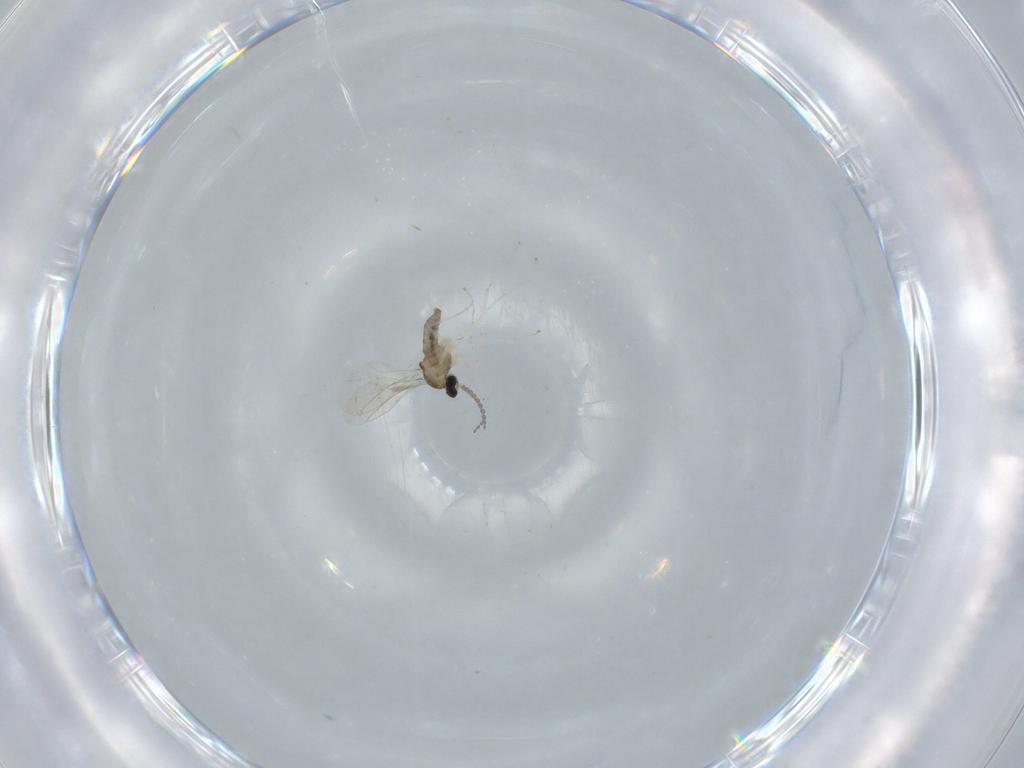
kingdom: Animalia
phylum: Arthropoda
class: Insecta
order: Diptera
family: Cecidomyiidae
